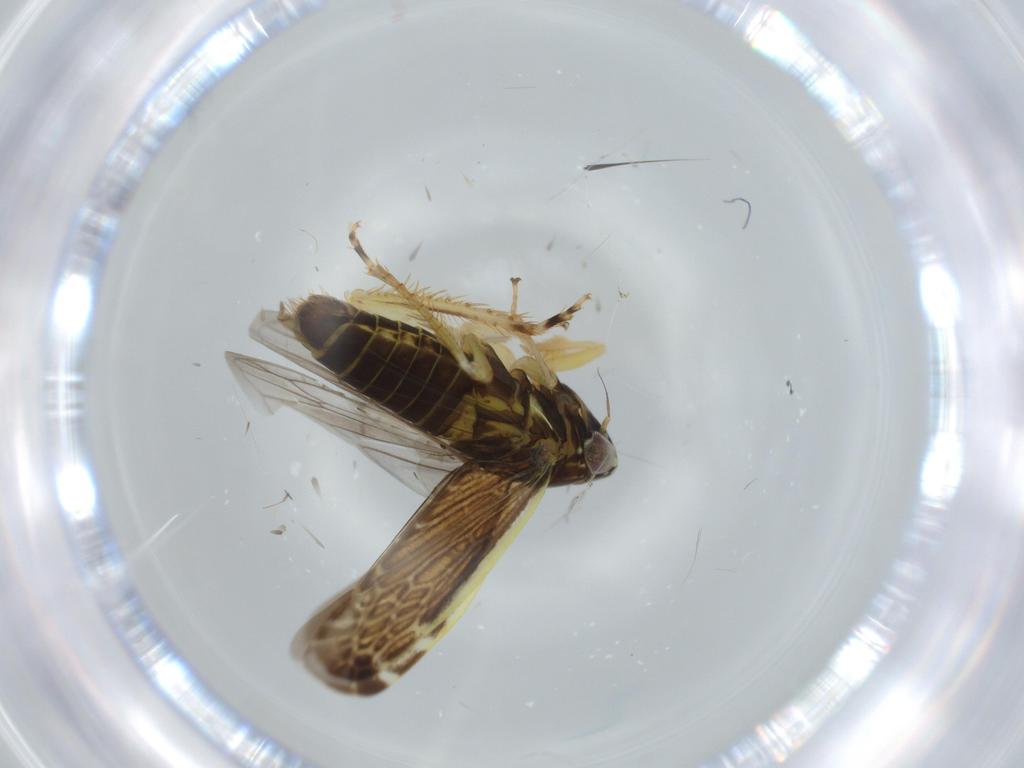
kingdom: Animalia
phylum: Arthropoda
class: Insecta
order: Hemiptera
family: Cicadellidae
